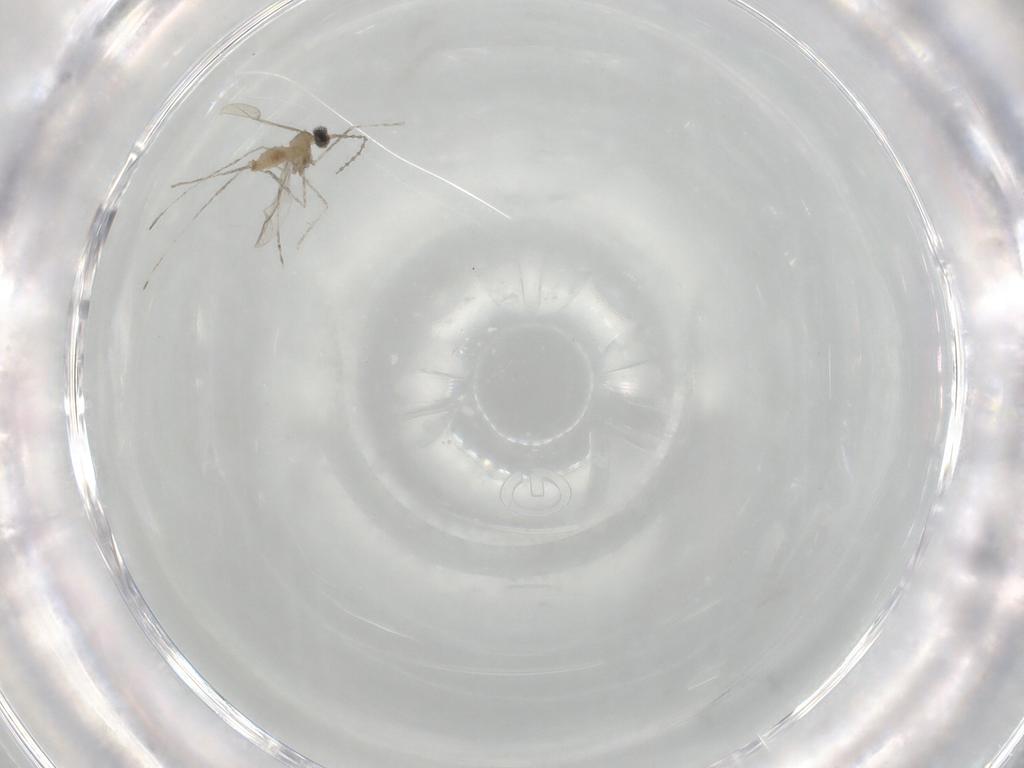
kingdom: Animalia
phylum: Arthropoda
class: Insecta
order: Diptera
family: Cecidomyiidae
